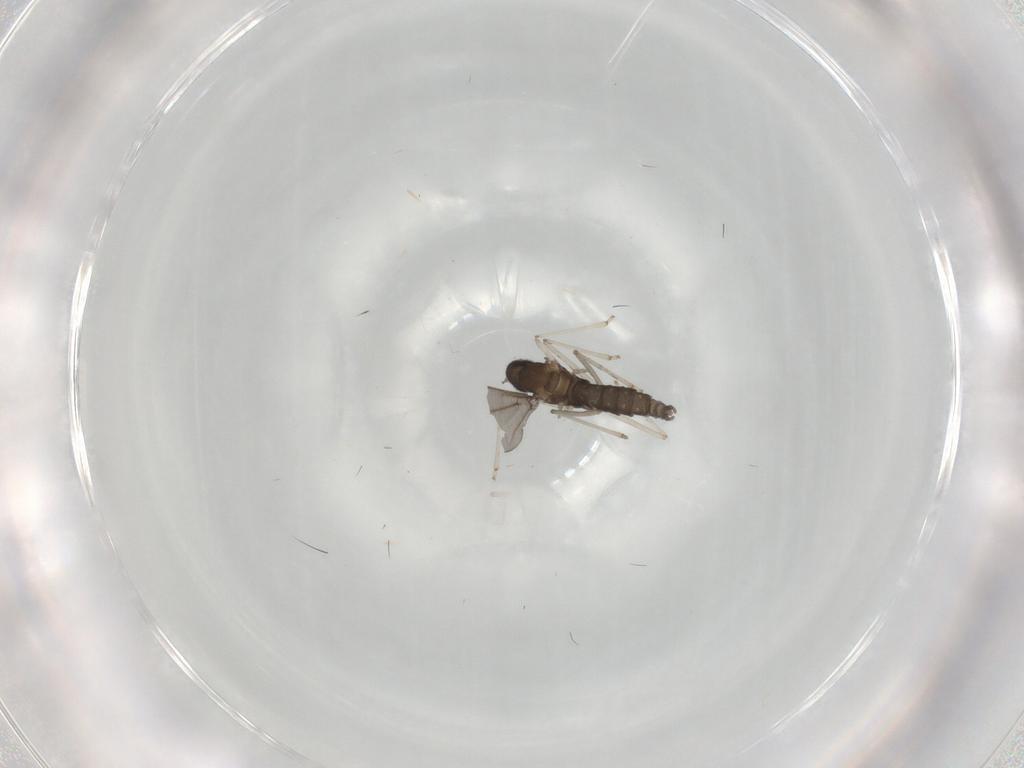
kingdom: Animalia
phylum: Arthropoda
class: Insecta
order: Diptera
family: Cecidomyiidae
